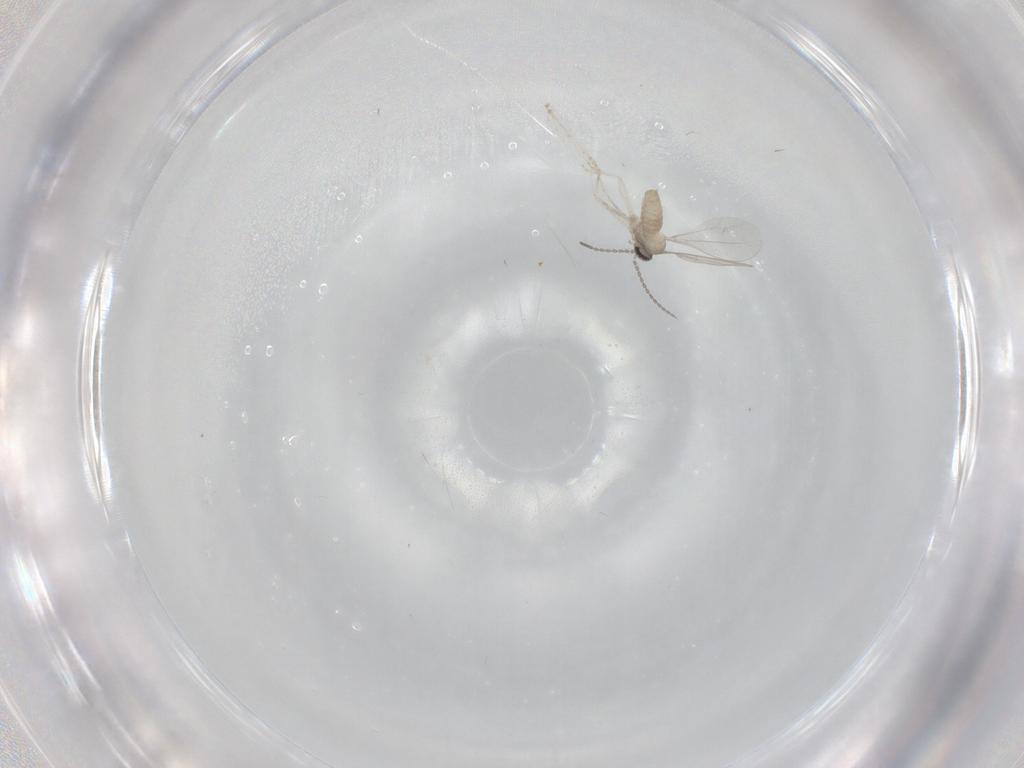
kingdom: Animalia
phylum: Arthropoda
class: Insecta
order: Diptera
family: Cecidomyiidae
